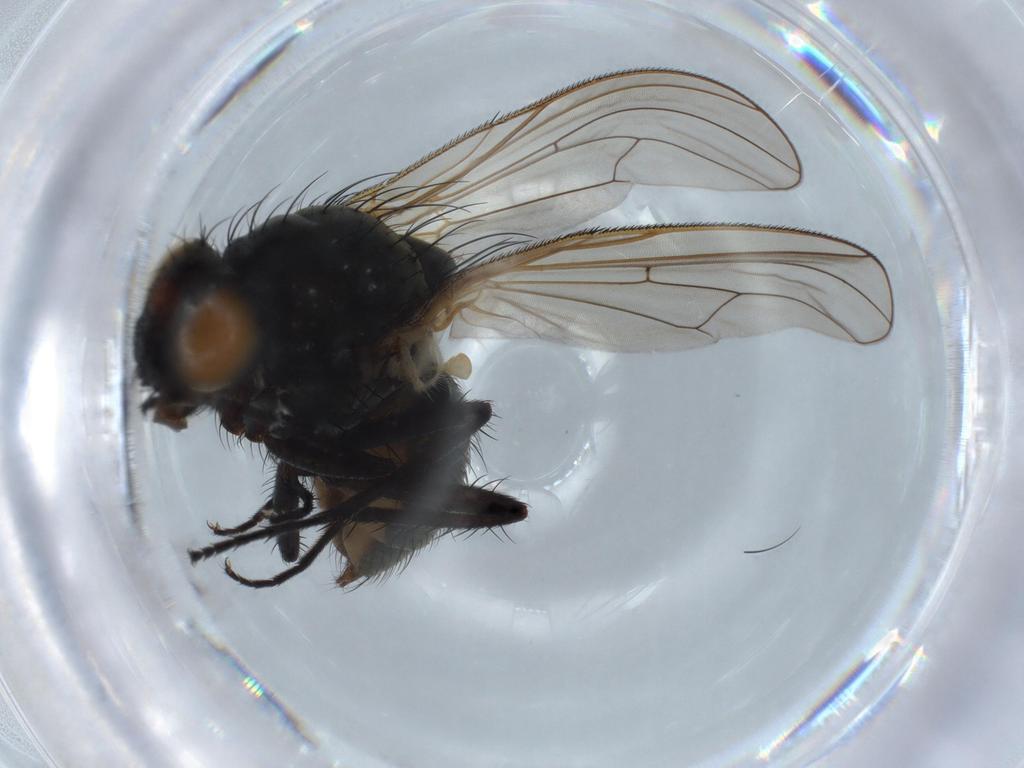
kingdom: Animalia
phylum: Arthropoda
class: Insecta
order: Diptera
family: Anthomyiidae
